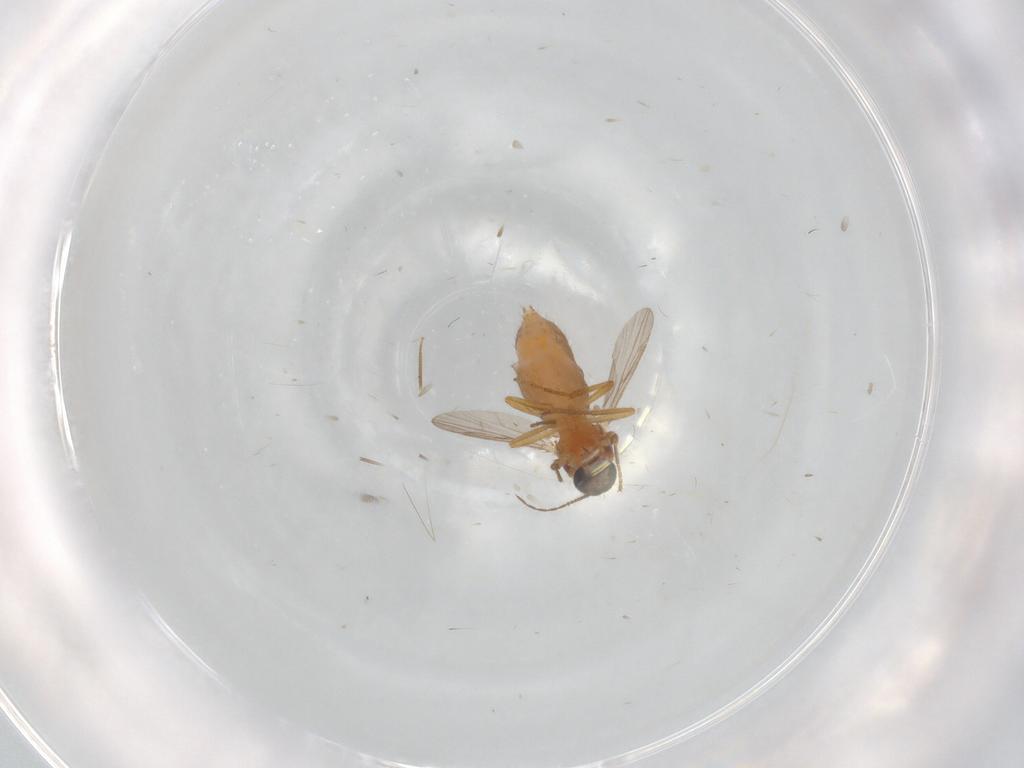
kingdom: Animalia
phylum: Arthropoda
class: Insecta
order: Diptera
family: Ceratopogonidae
